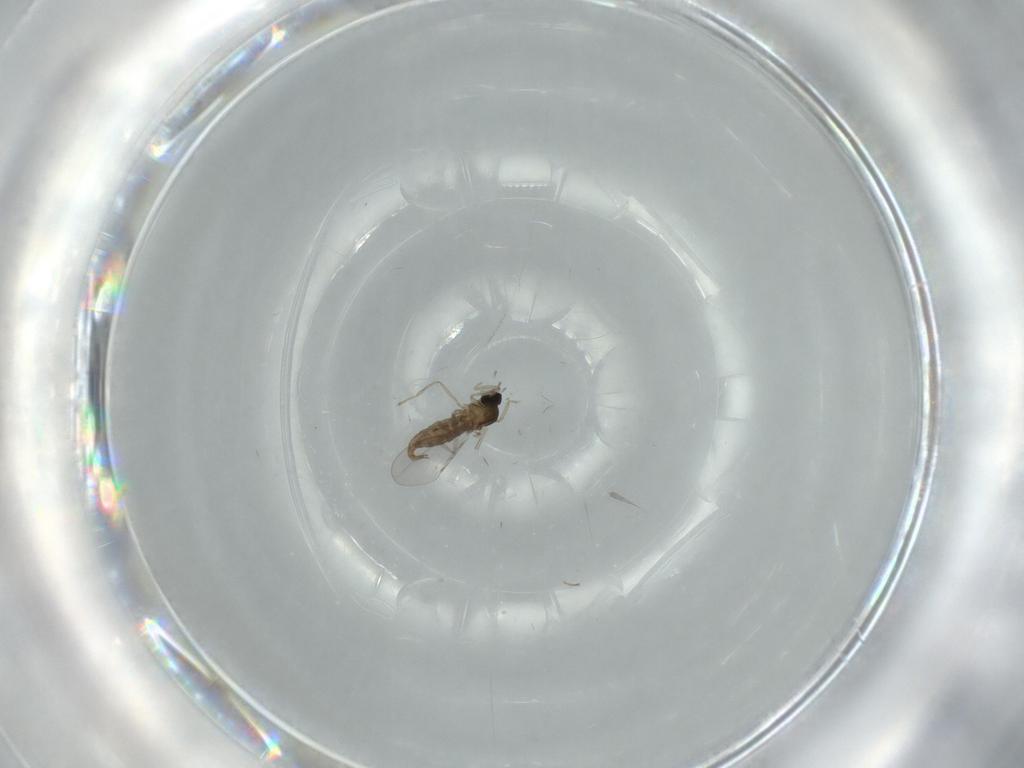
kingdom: Animalia
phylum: Arthropoda
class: Insecta
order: Diptera
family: Cecidomyiidae
